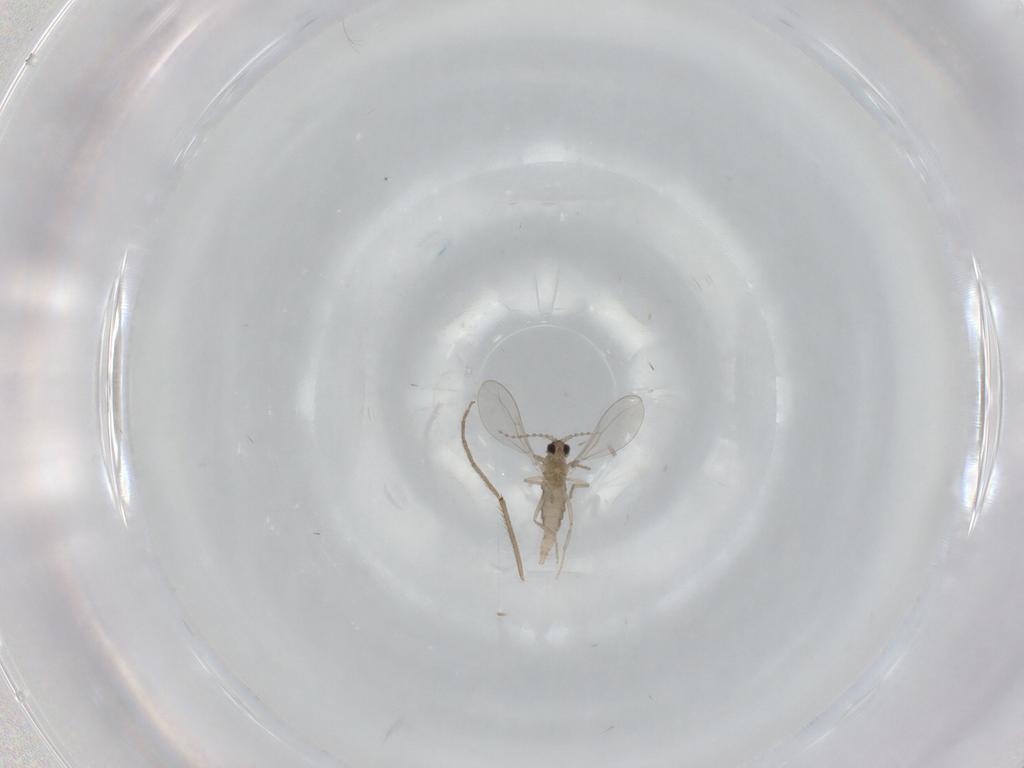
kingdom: Animalia
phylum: Arthropoda
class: Insecta
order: Diptera
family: Cecidomyiidae
